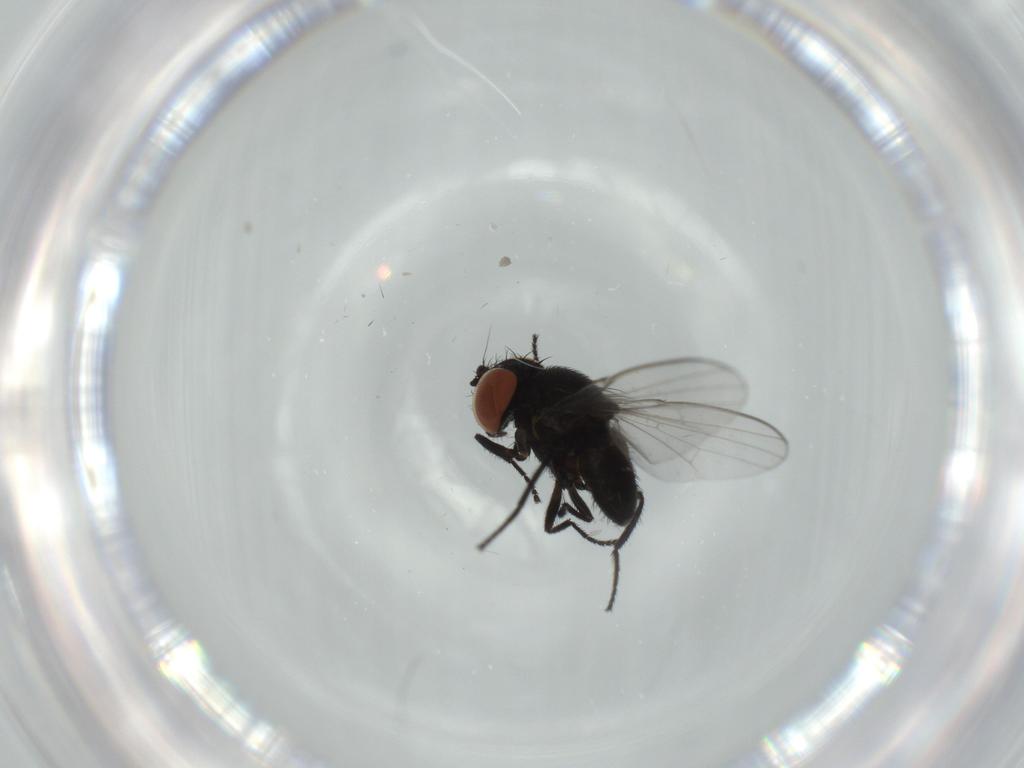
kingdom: Animalia
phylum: Arthropoda
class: Insecta
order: Diptera
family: Milichiidae
